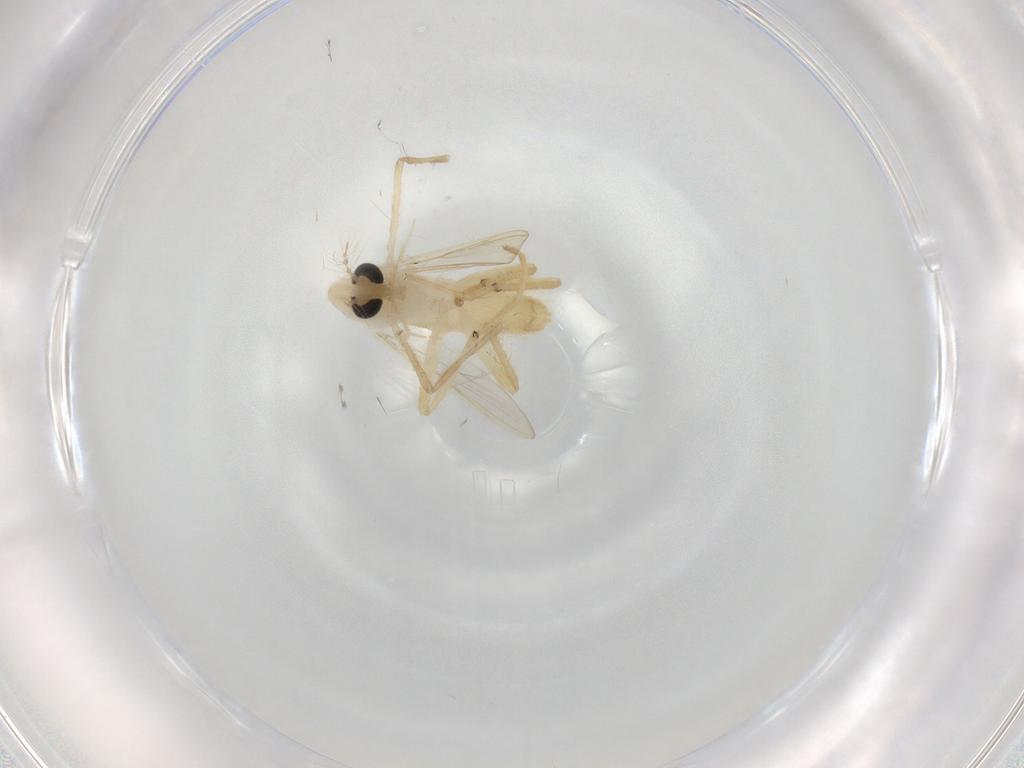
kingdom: Animalia
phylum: Arthropoda
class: Insecta
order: Diptera
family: Chironomidae
